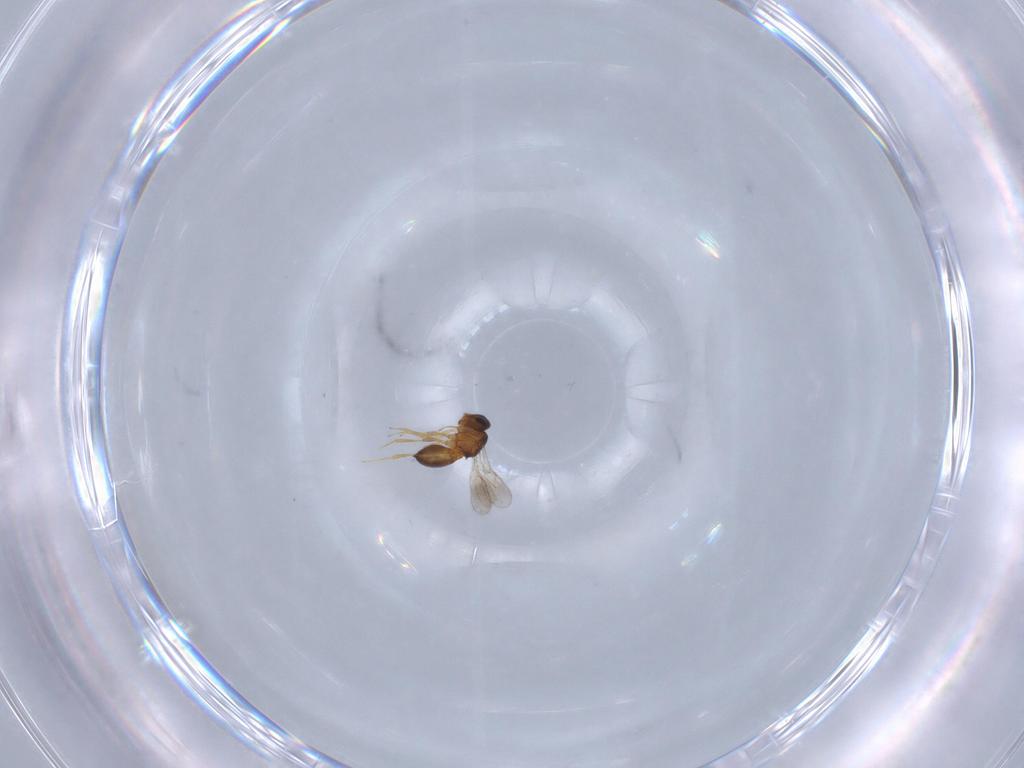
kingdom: Animalia
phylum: Arthropoda
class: Insecta
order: Hymenoptera
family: Scelionidae
